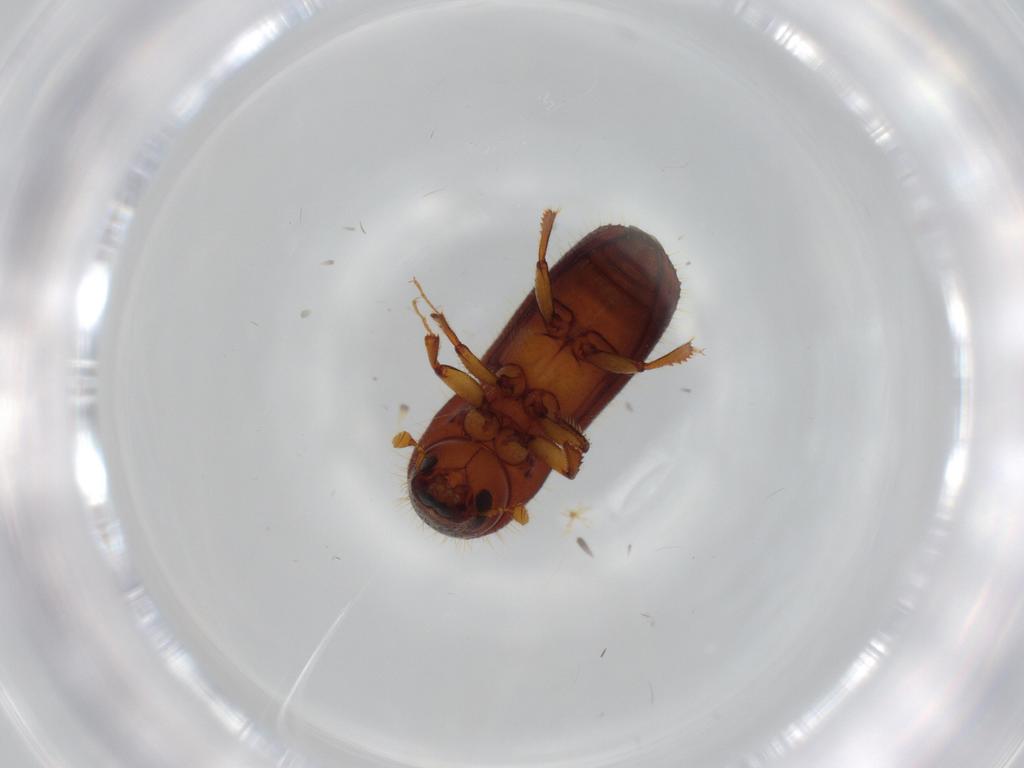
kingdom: Animalia
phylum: Arthropoda
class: Insecta
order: Coleoptera
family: Curculionidae
